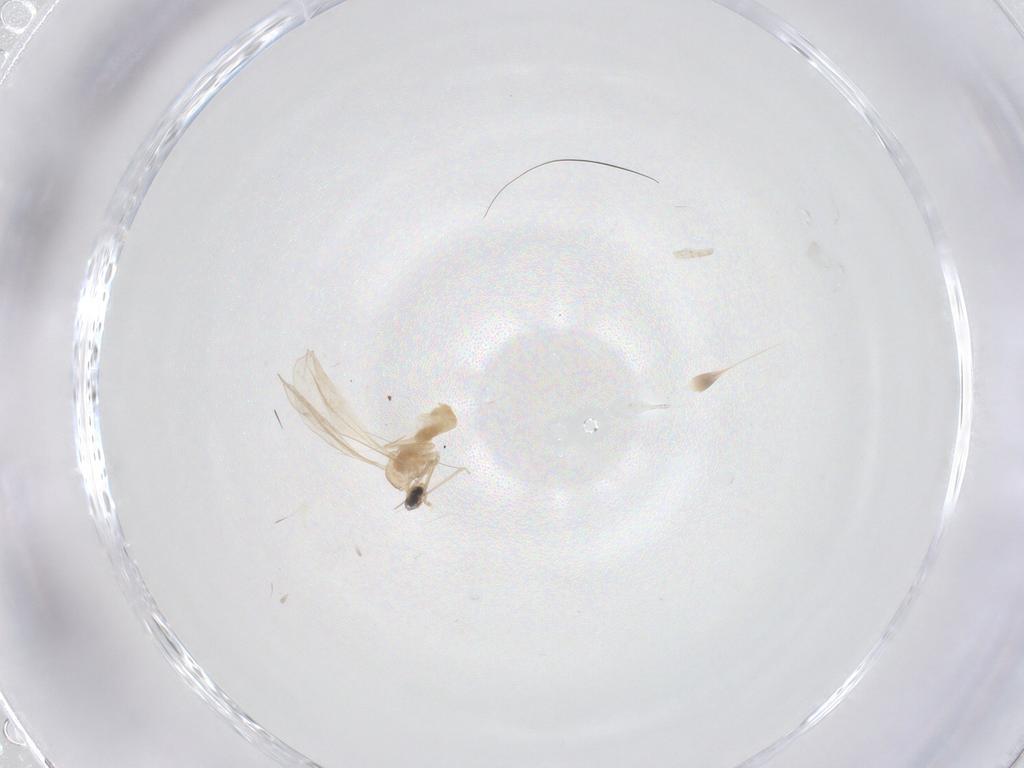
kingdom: Animalia
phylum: Arthropoda
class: Insecta
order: Diptera
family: Cecidomyiidae
